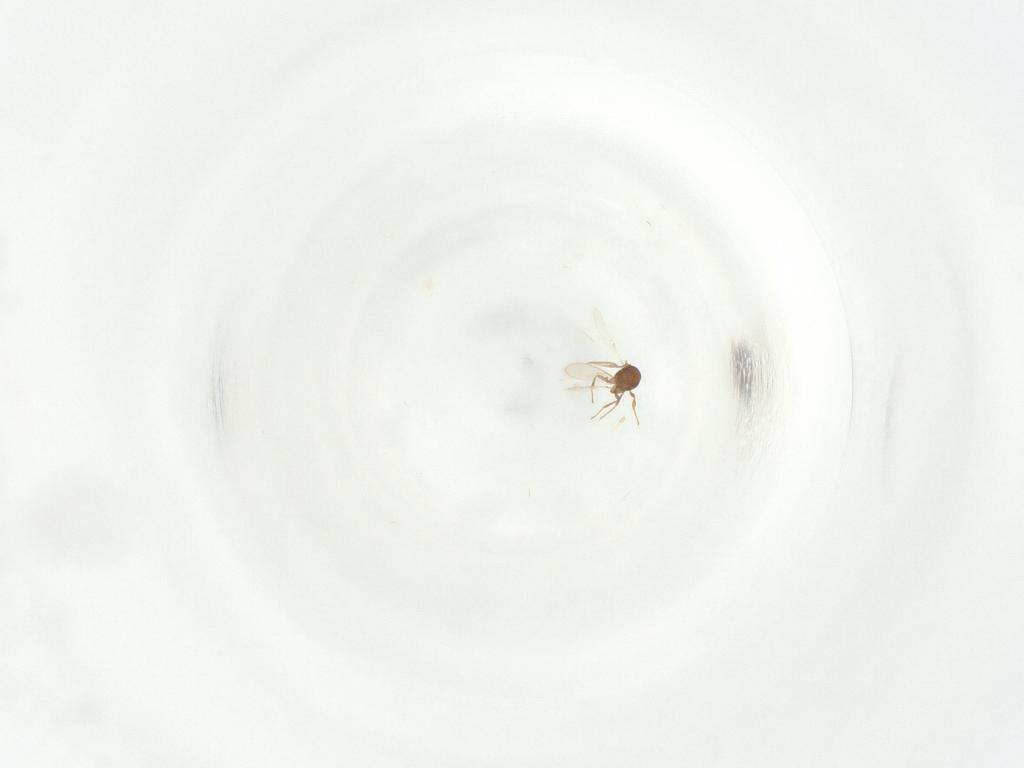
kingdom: Animalia
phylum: Arthropoda
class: Insecta
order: Hymenoptera
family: Scelionidae
